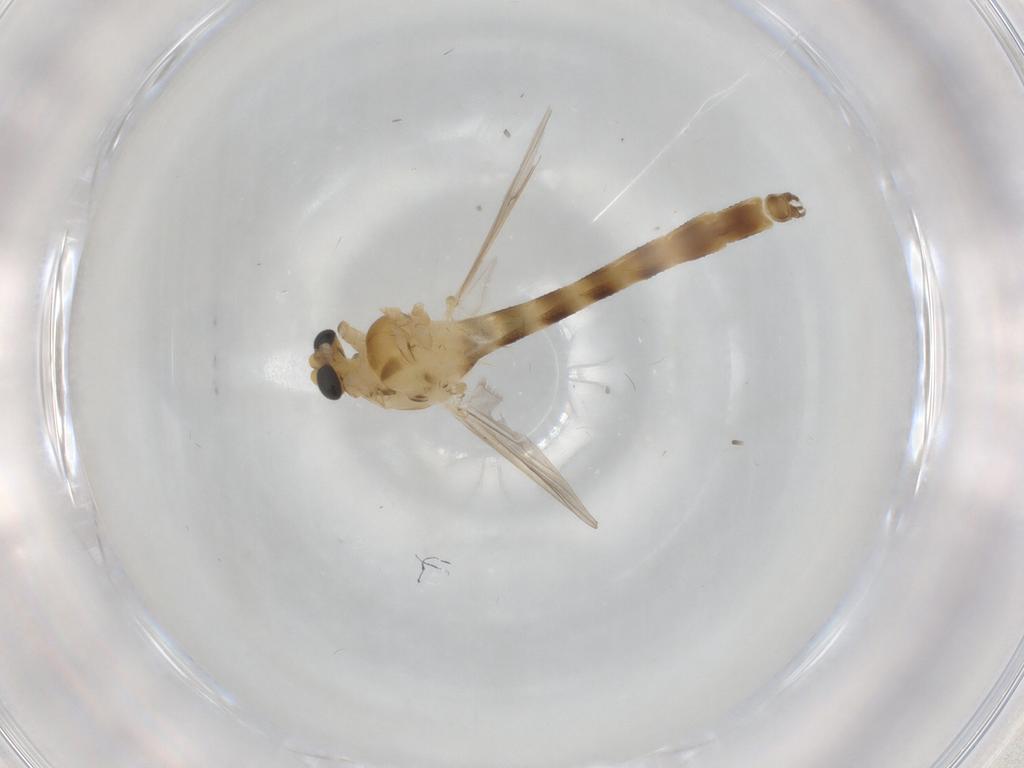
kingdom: Animalia
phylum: Arthropoda
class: Insecta
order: Diptera
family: Chironomidae
